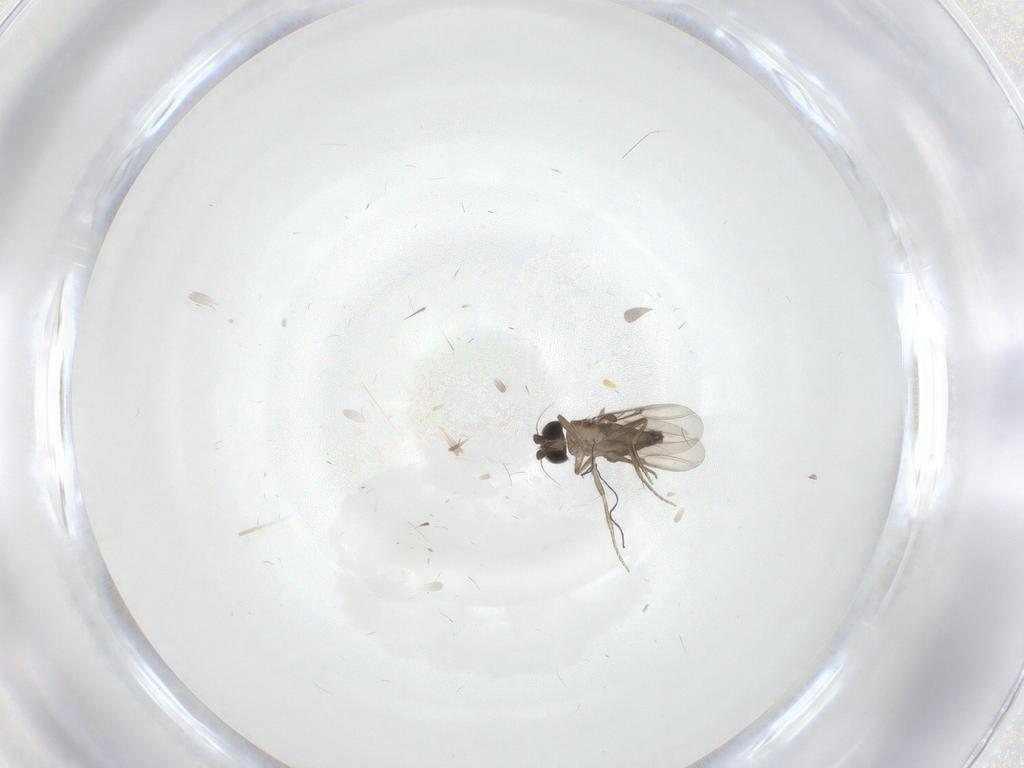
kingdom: Animalia
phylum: Arthropoda
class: Insecta
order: Diptera
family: Phoridae
